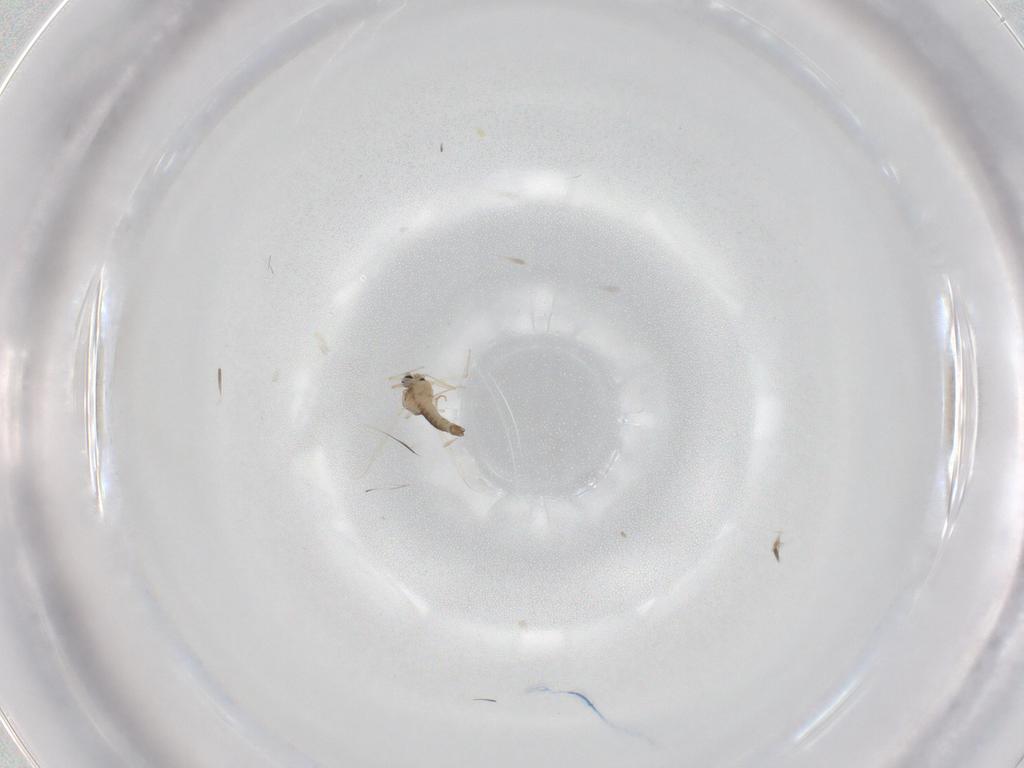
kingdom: Animalia
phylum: Arthropoda
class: Insecta
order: Diptera
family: Chironomidae
